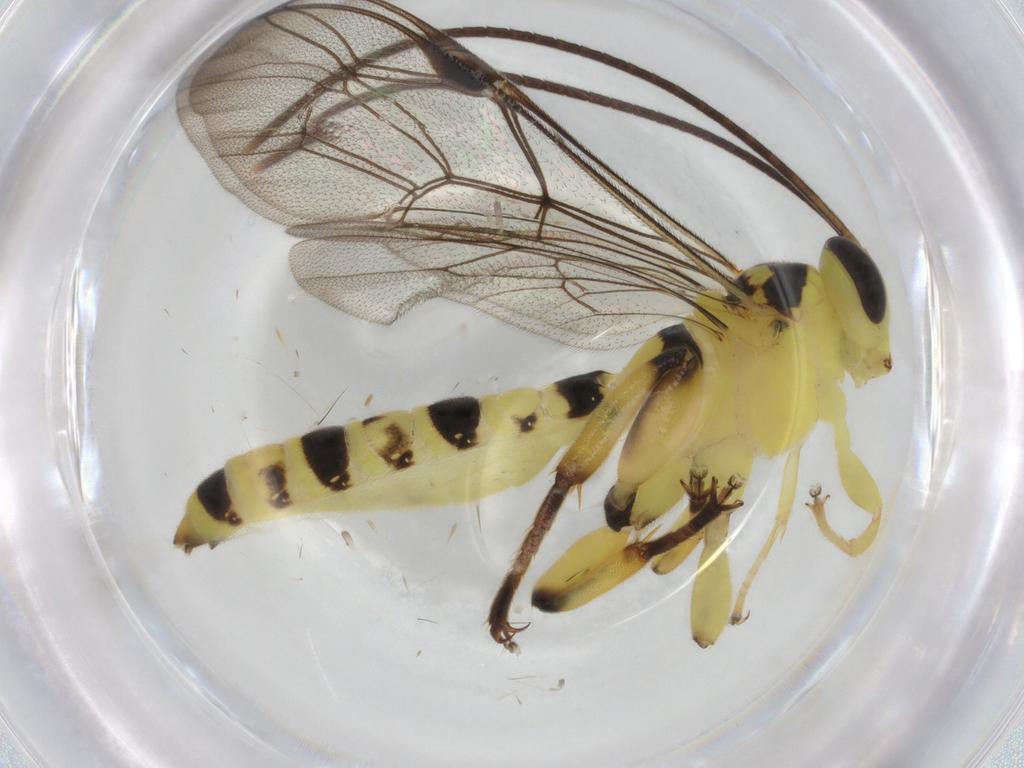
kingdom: Animalia
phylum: Arthropoda
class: Insecta
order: Hymenoptera
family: Ichneumonidae
